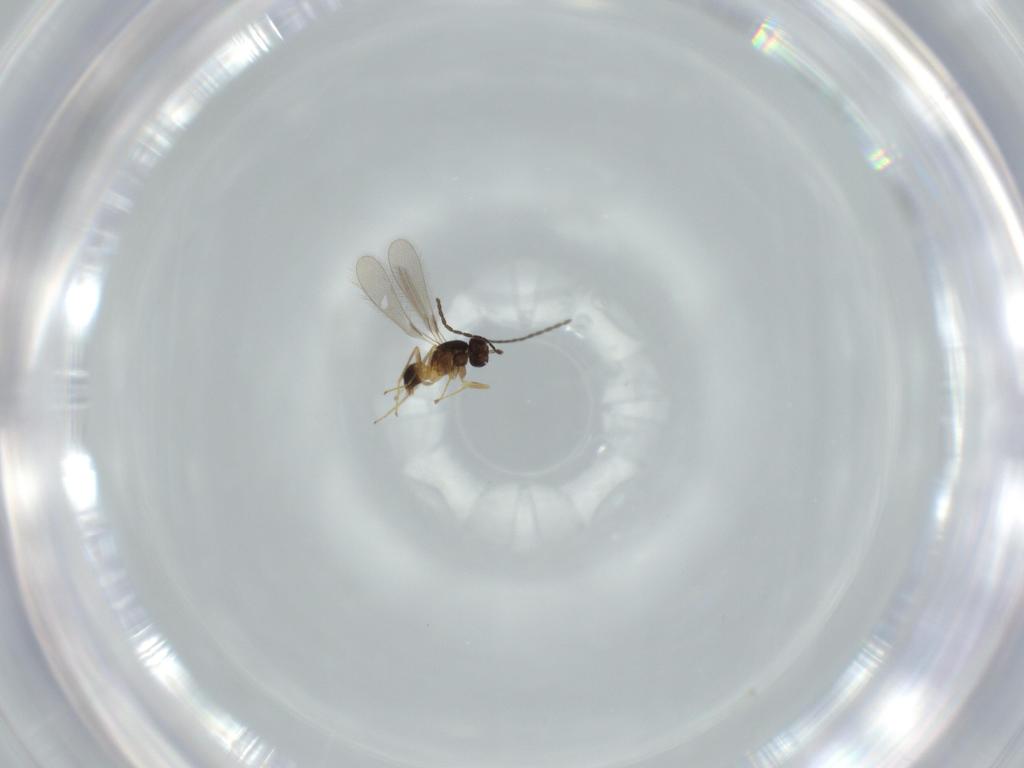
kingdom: Animalia
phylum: Arthropoda
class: Insecta
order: Hymenoptera
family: Mymaridae
